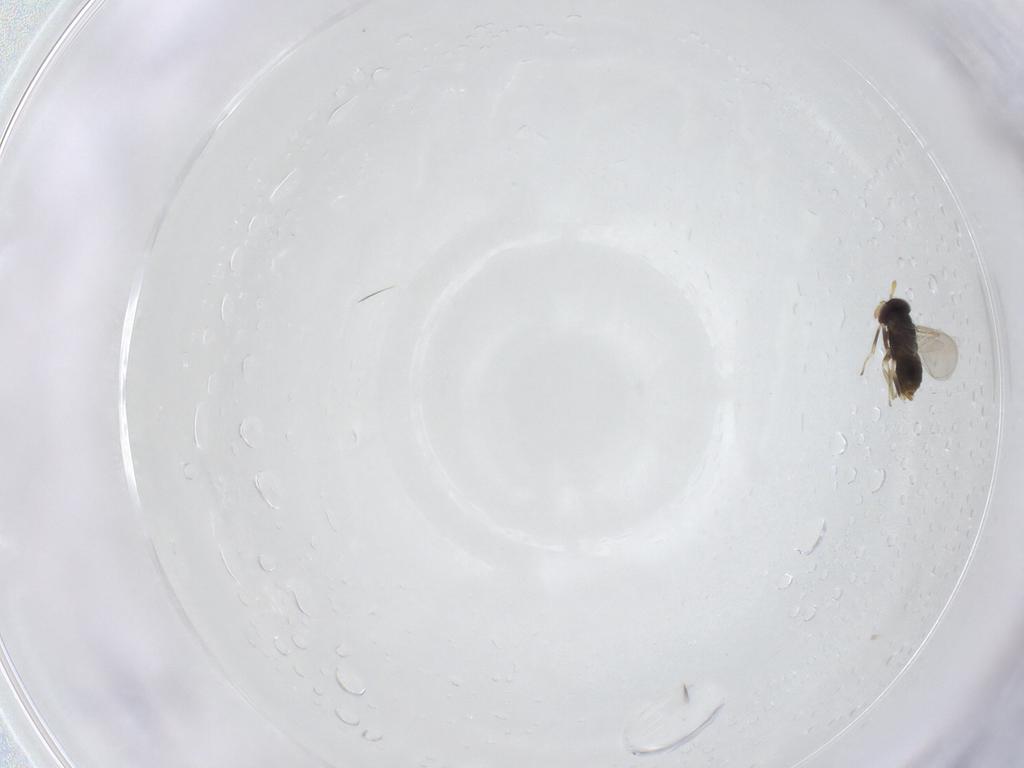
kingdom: Animalia
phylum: Arthropoda
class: Insecta
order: Hymenoptera
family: Aphelinidae
